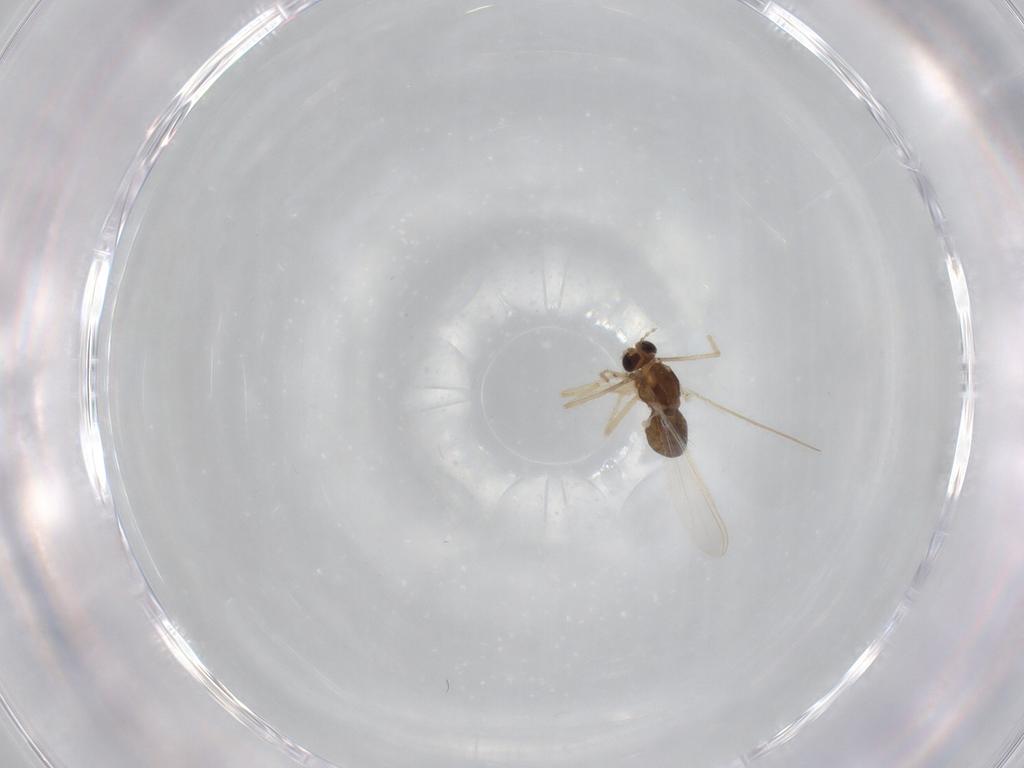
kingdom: Animalia
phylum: Arthropoda
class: Insecta
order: Diptera
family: Chironomidae
